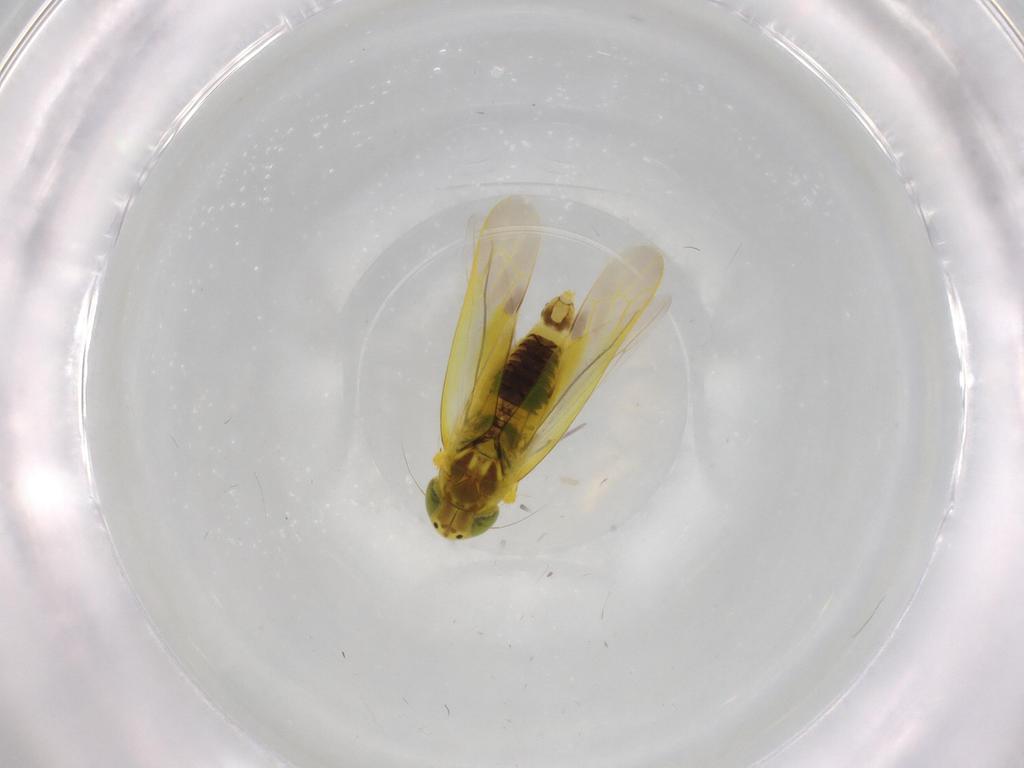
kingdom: Animalia
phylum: Arthropoda
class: Insecta
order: Hemiptera
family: Cicadellidae
